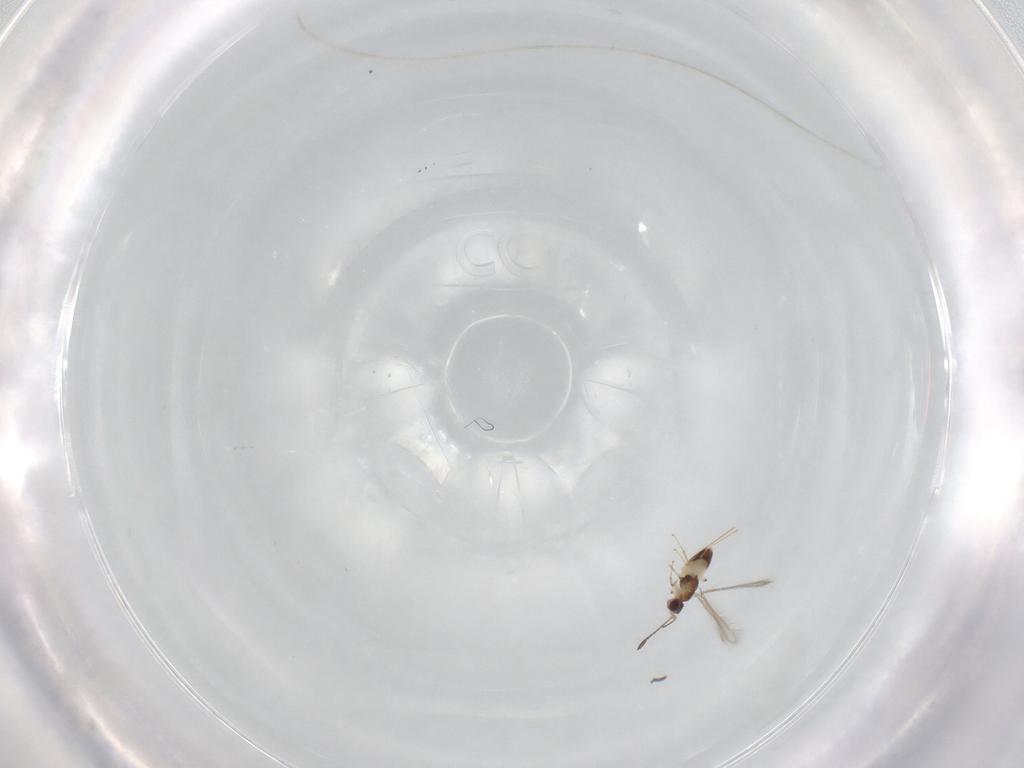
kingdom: Animalia
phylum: Arthropoda
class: Insecta
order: Hymenoptera
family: Mymaridae
